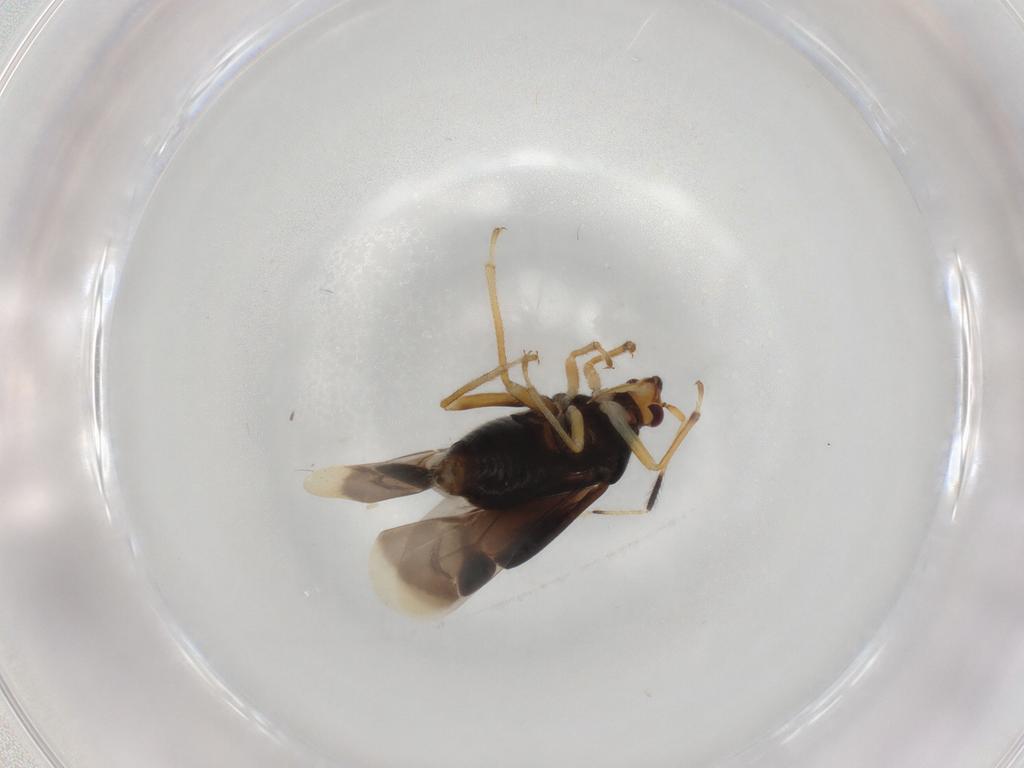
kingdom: Animalia
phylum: Arthropoda
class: Insecta
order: Hemiptera
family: Miridae
